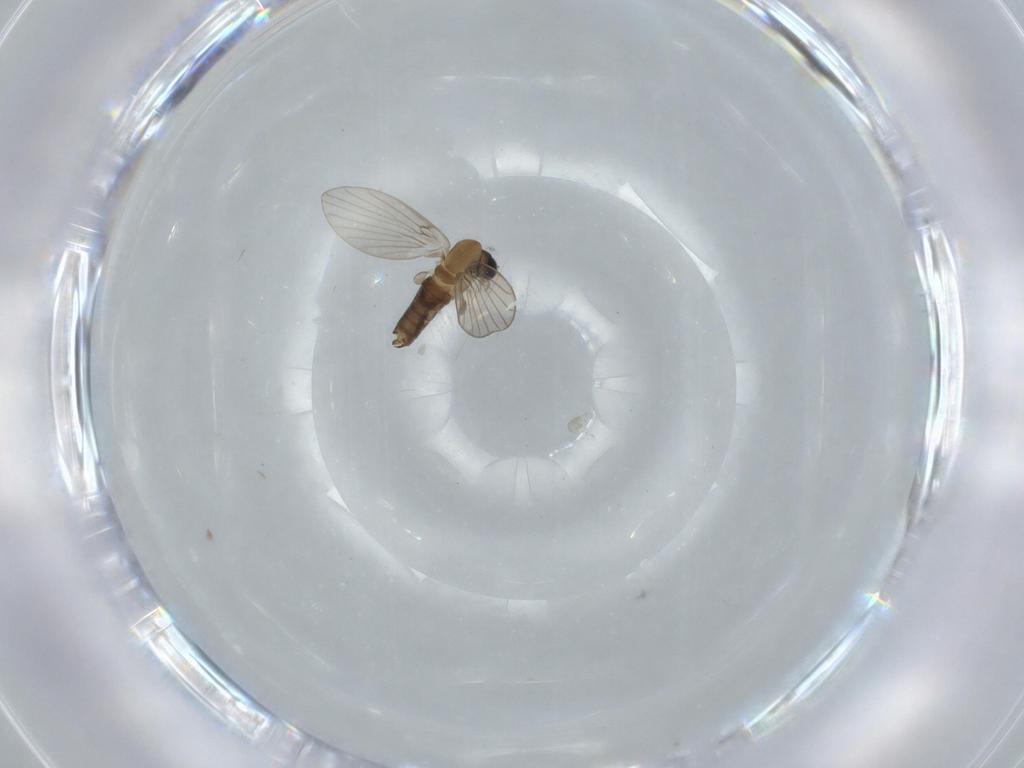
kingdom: Animalia
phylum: Arthropoda
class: Insecta
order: Diptera
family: Psychodidae
